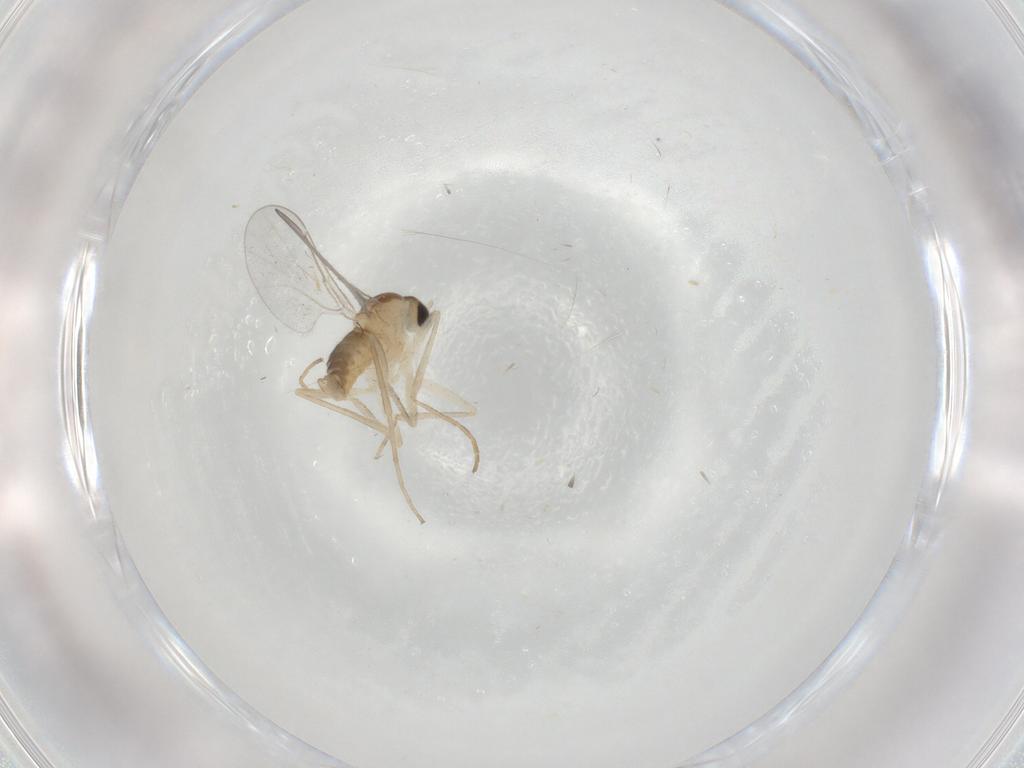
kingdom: Animalia
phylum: Arthropoda
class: Insecta
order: Diptera
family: Cecidomyiidae
